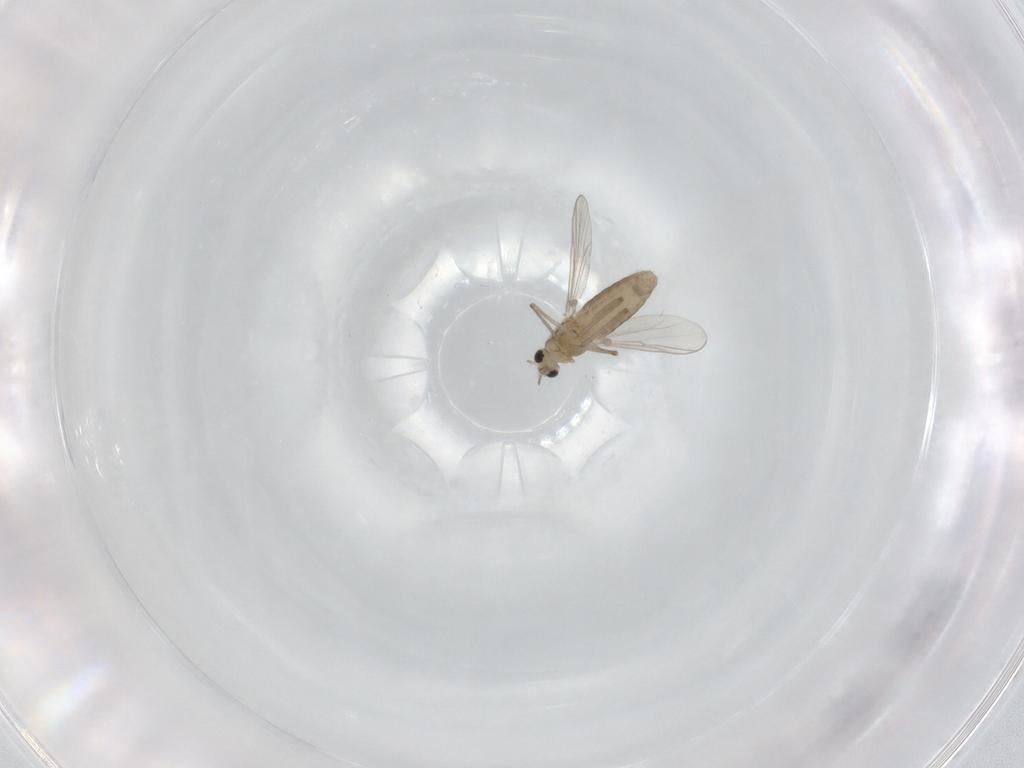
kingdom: Animalia
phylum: Arthropoda
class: Insecta
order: Diptera
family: Chironomidae
